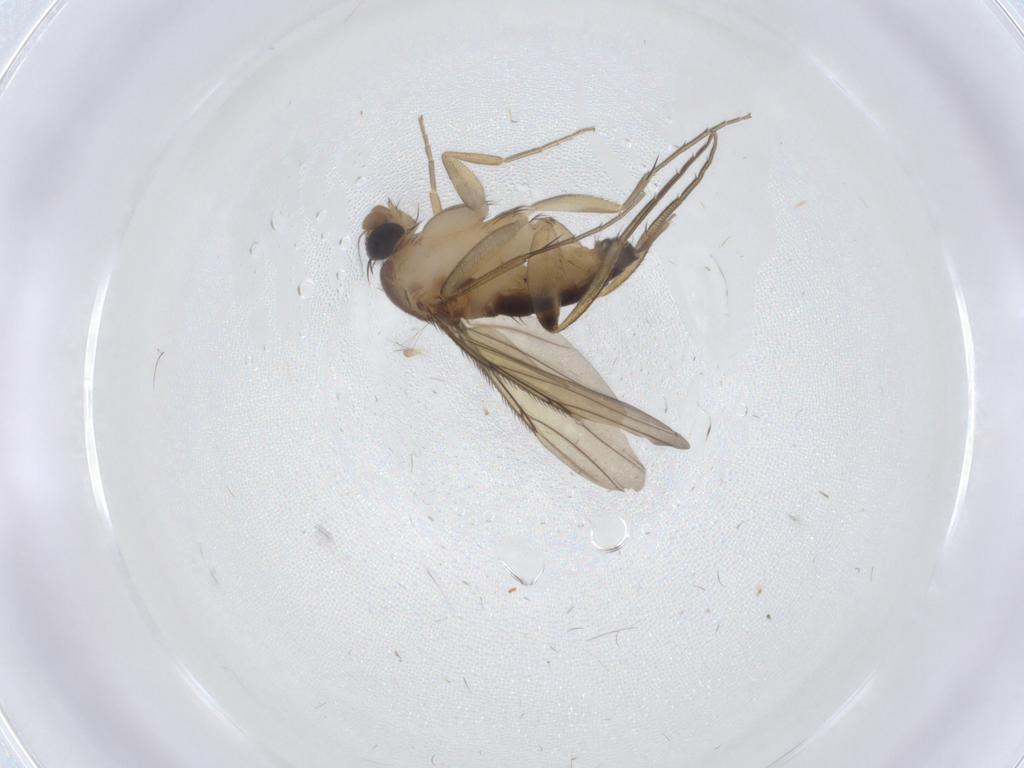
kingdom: Animalia
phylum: Arthropoda
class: Insecta
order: Diptera
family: Phoridae
